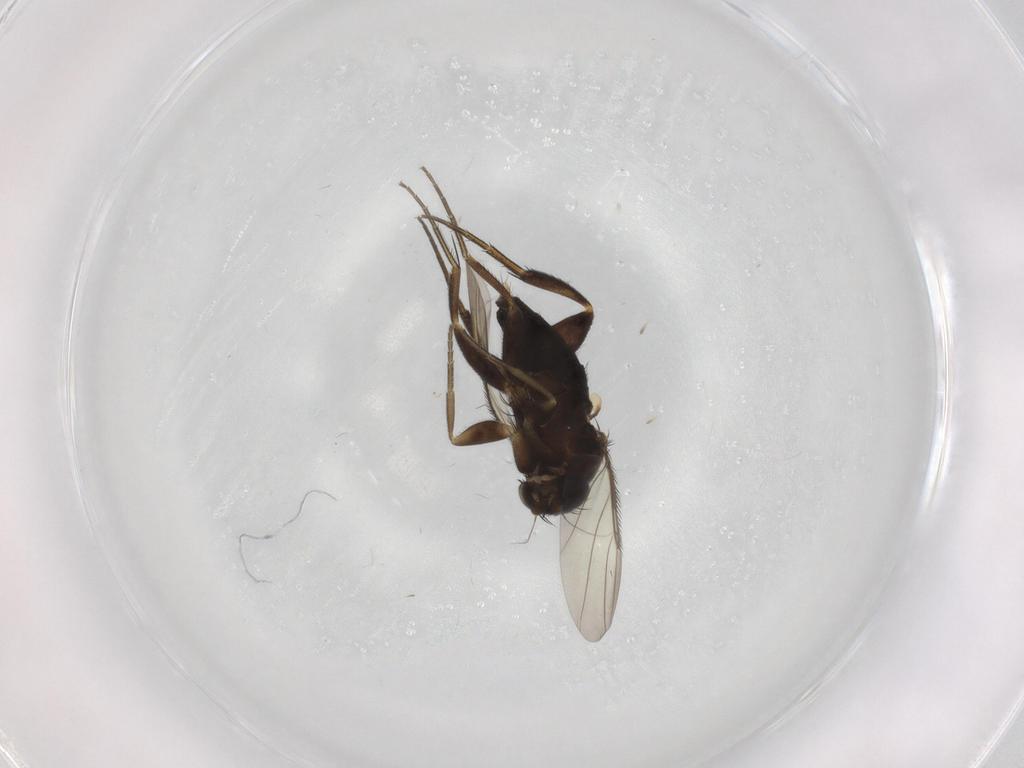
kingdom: Animalia
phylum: Arthropoda
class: Insecta
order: Diptera
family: Phoridae
